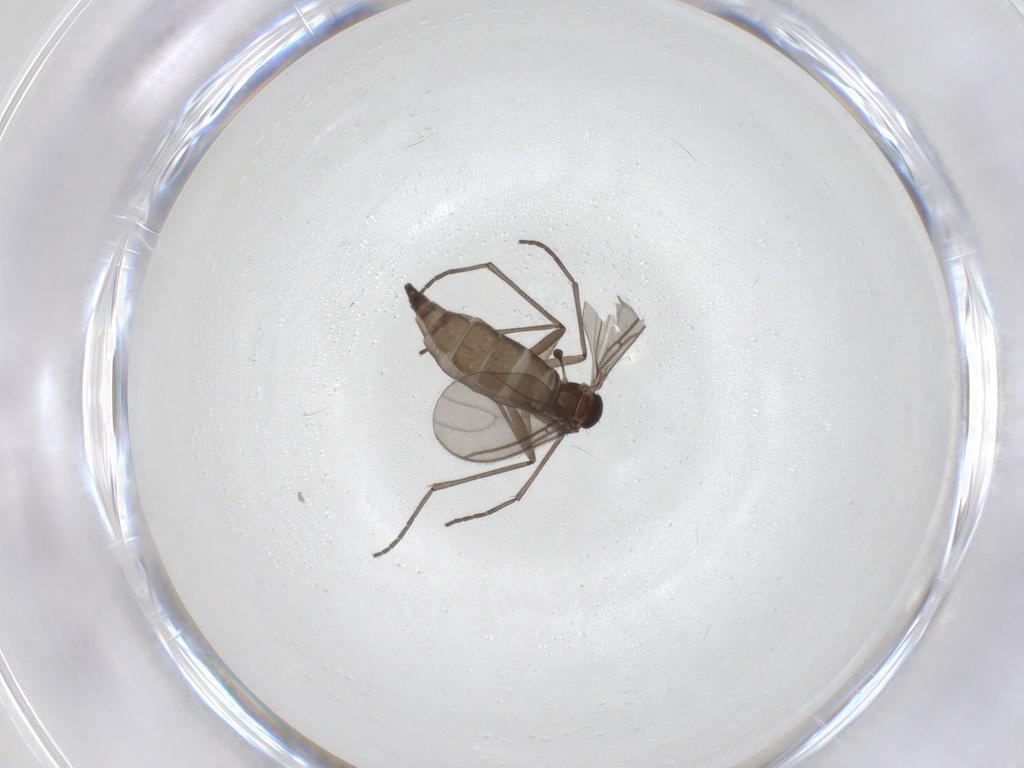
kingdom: Animalia
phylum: Arthropoda
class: Insecta
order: Diptera
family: Sciaridae
